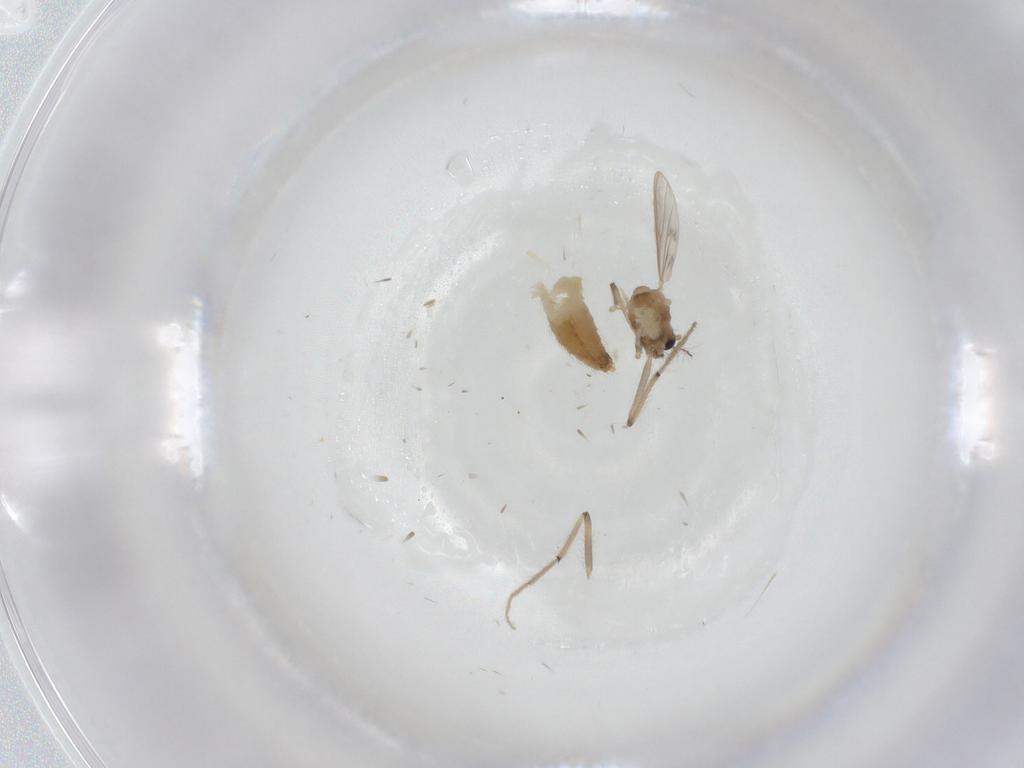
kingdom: Animalia
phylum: Arthropoda
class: Insecta
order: Diptera
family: Chironomidae
